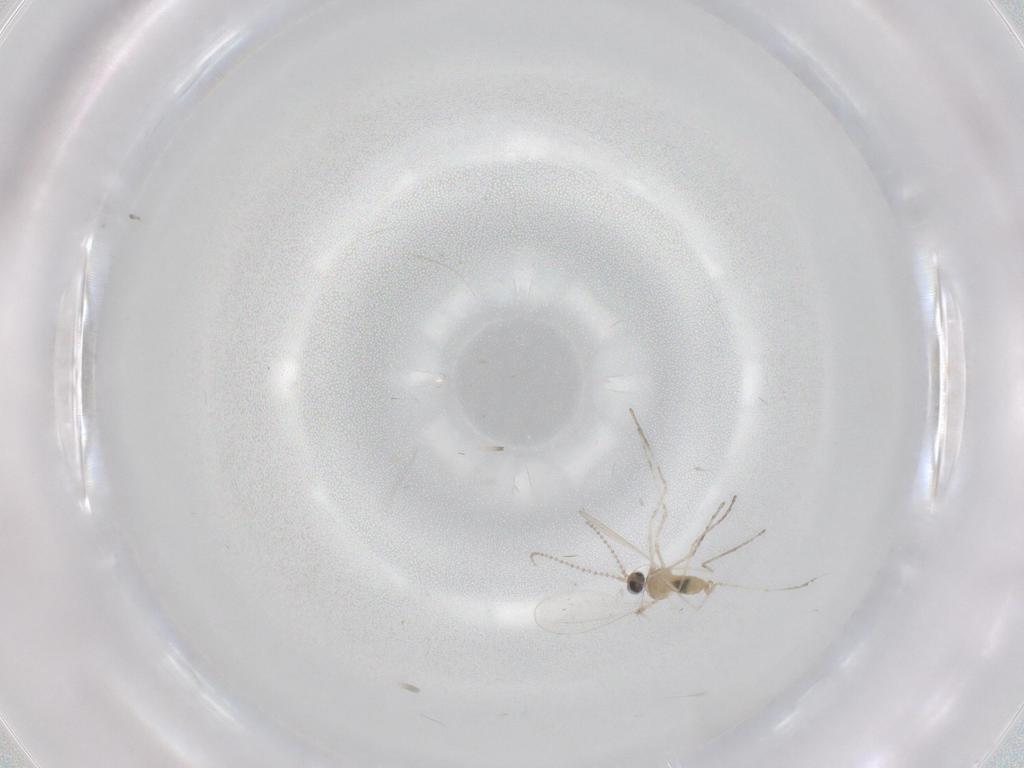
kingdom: Animalia
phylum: Arthropoda
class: Insecta
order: Diptera
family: Cecidomyiidae
